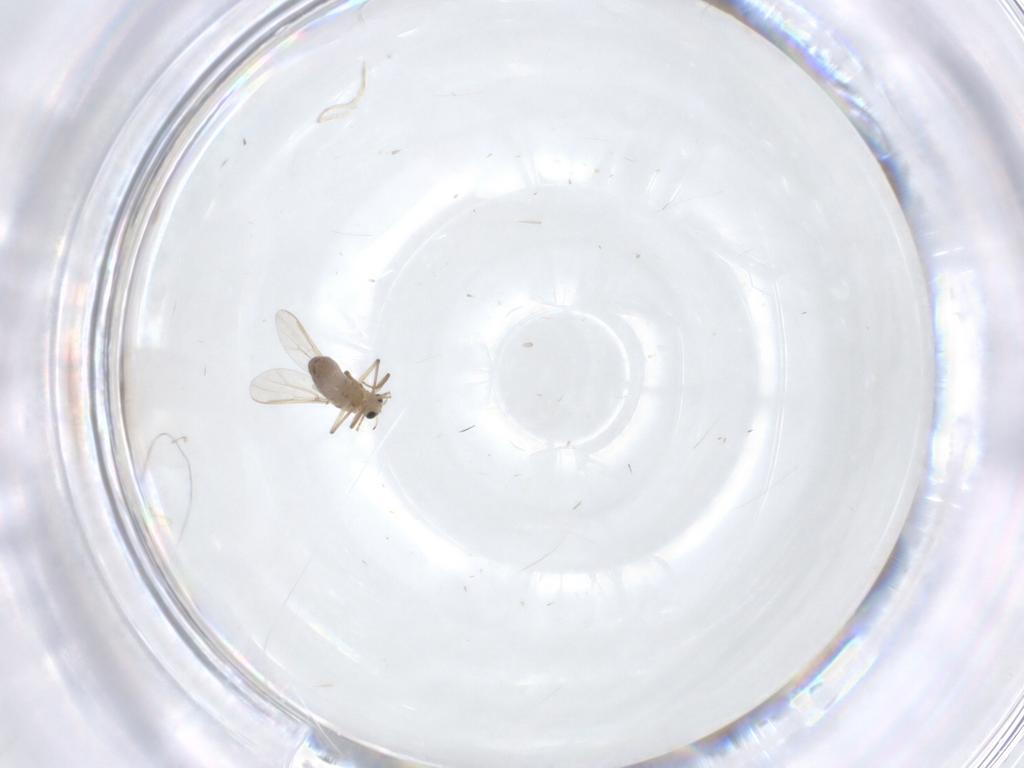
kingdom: Animalia
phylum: Arthropoda
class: Insecta
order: Diptera
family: Chironomidae
